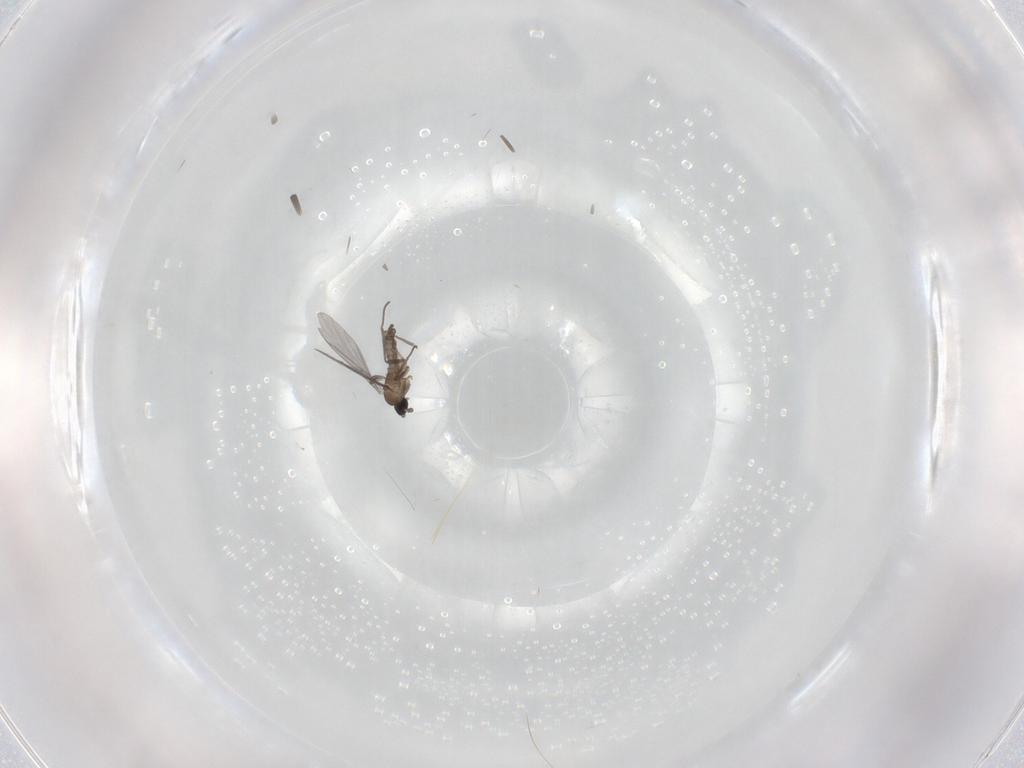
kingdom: Animalia
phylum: Arthropoda
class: Insecta
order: Diptera
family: Sciaridae
